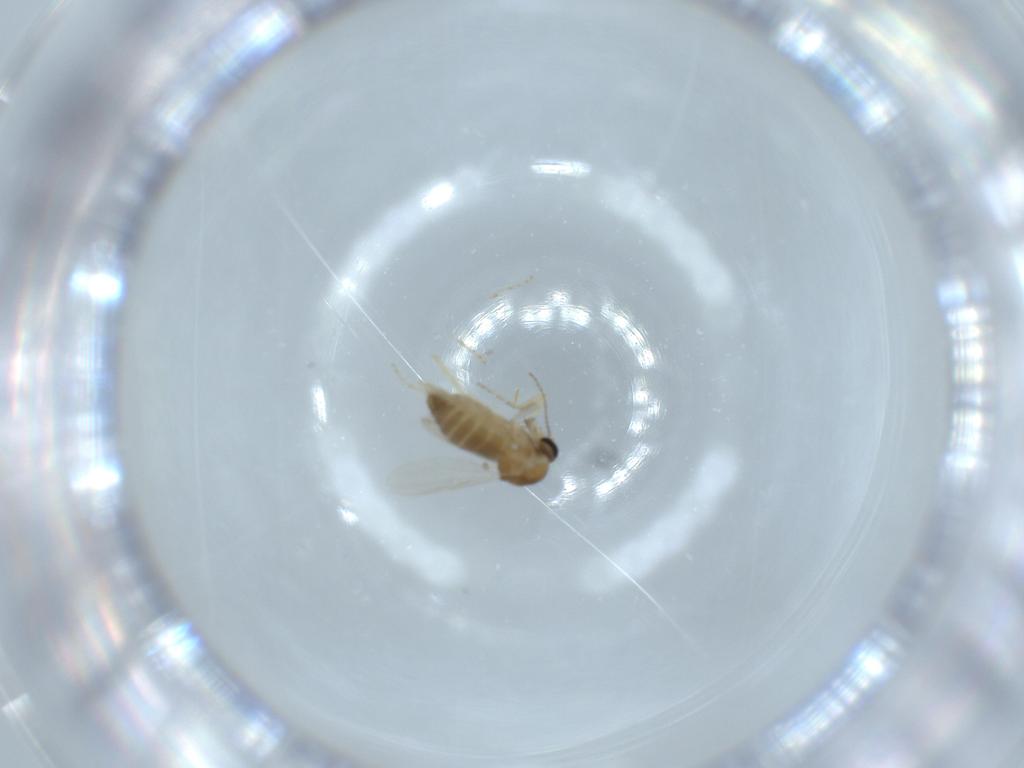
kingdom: Animalia
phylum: Arthropoda
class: Insecta
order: Diptera
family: Ceratopogonidae
